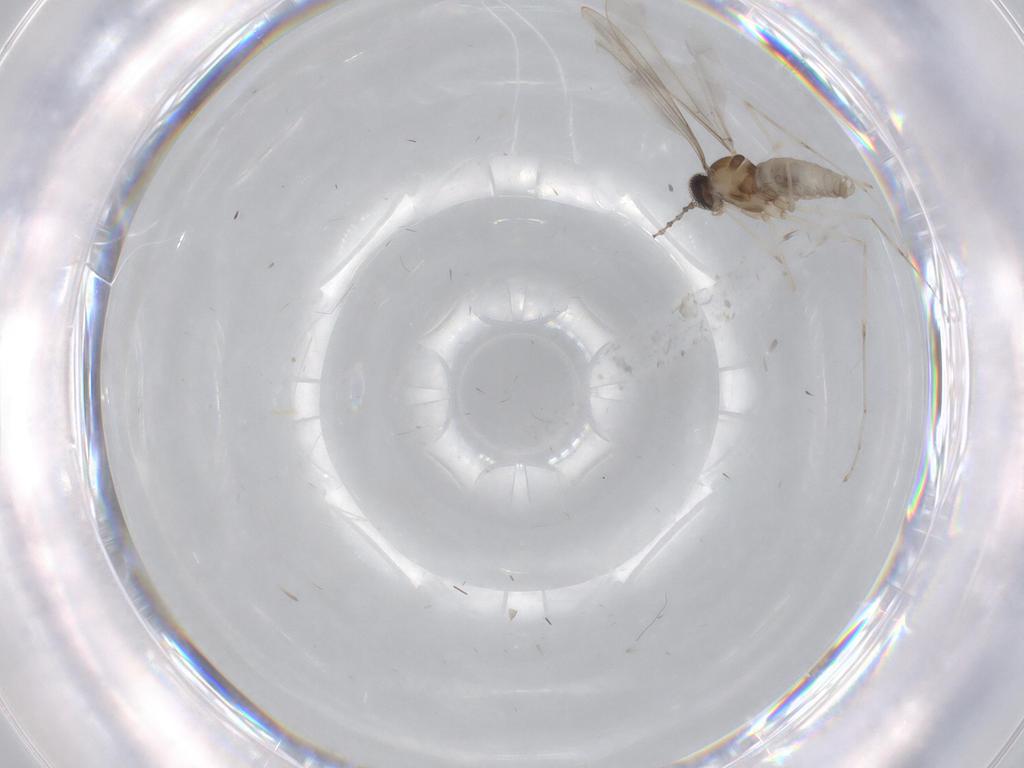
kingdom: Animalia
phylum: Arthropoda
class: Insecta
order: Diptera
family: Cecidomyiidae
